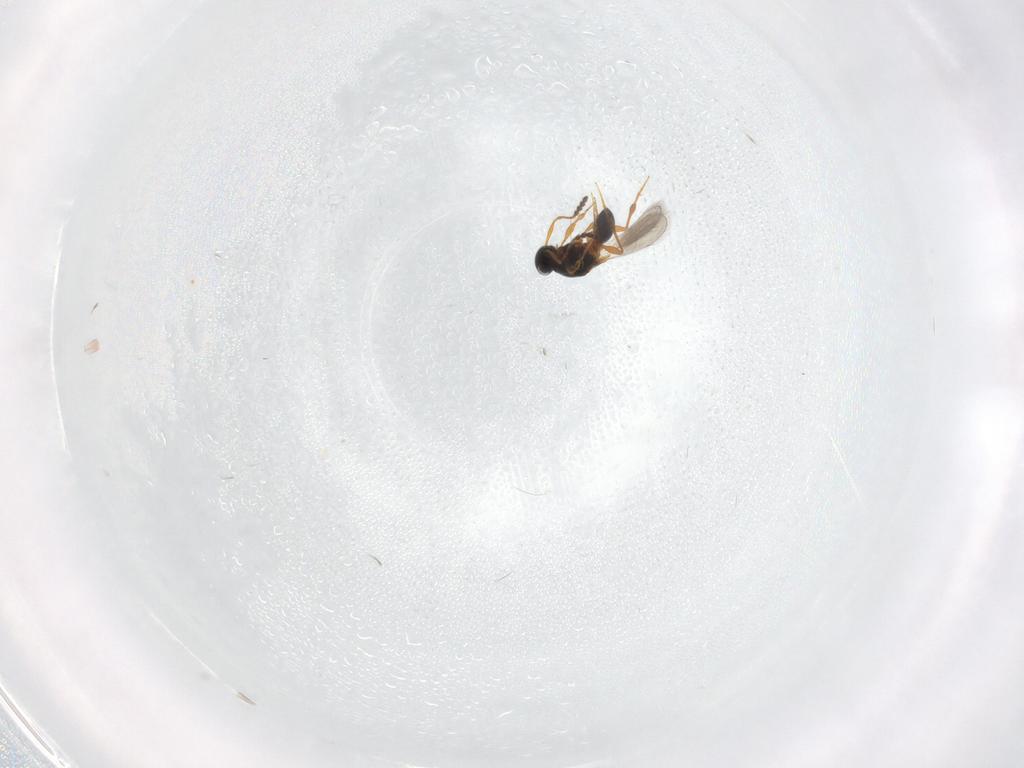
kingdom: Animalia
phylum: Arthropoda
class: Insecta
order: Hymenoptera
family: Platygastridae
